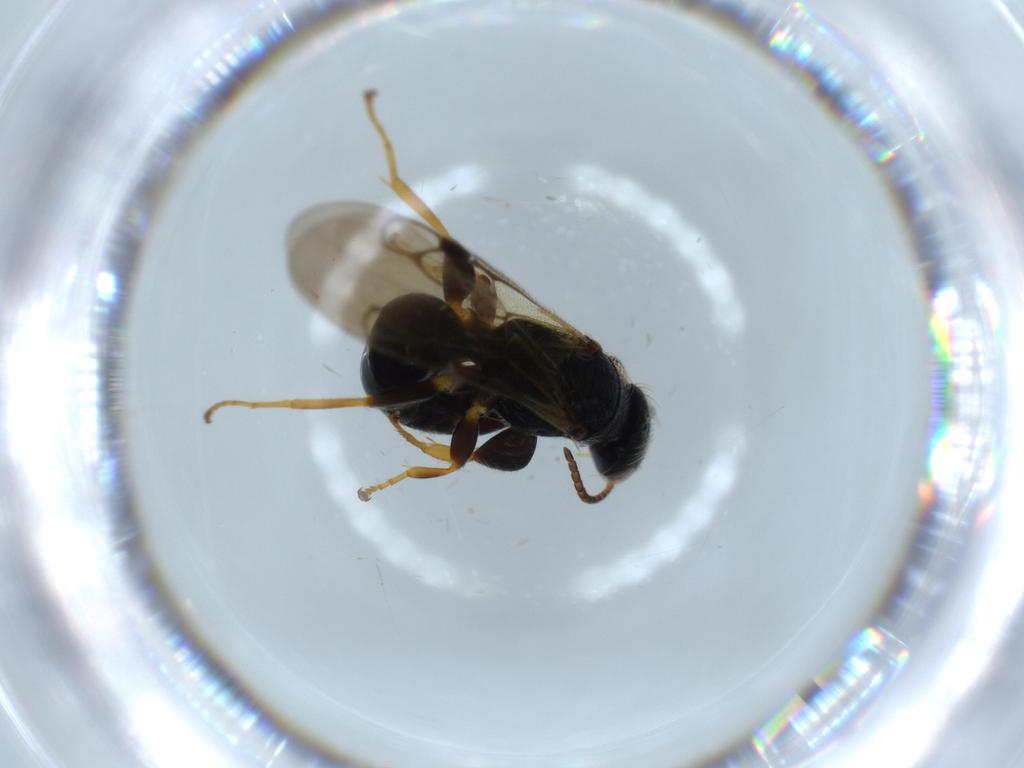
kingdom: Animalia
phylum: Arthropoda
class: Insecta
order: Hymenoptera
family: Bethylidae
